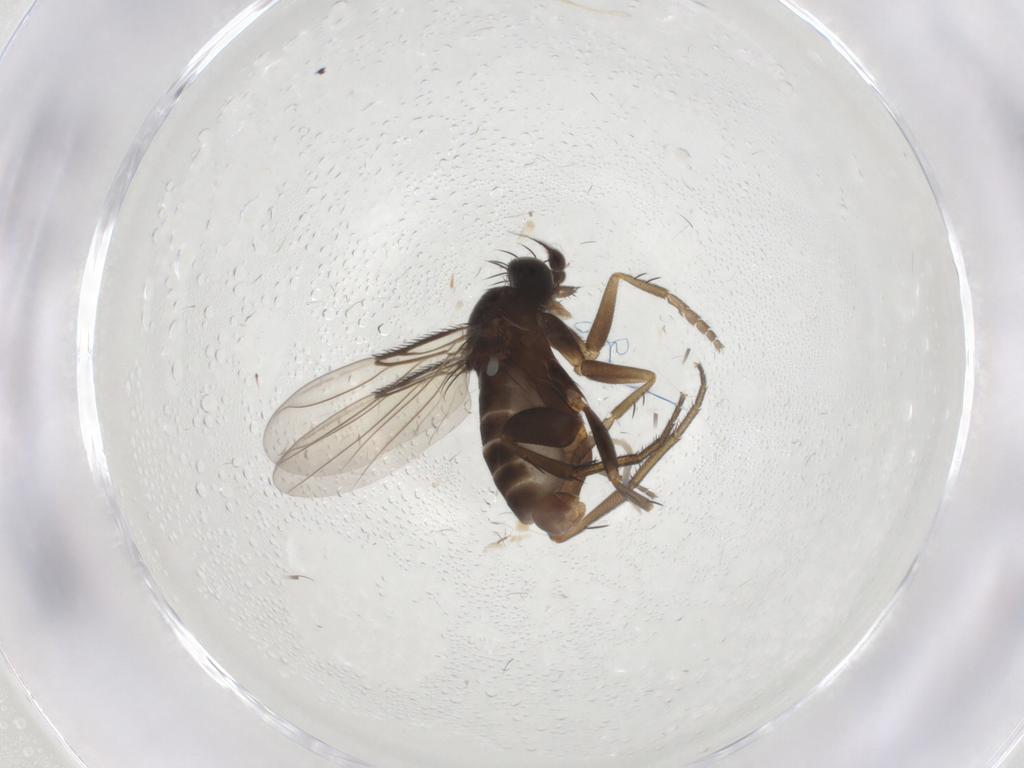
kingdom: Animalia
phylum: Arthropoda
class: Insecta
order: Diptera
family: Phoridae
